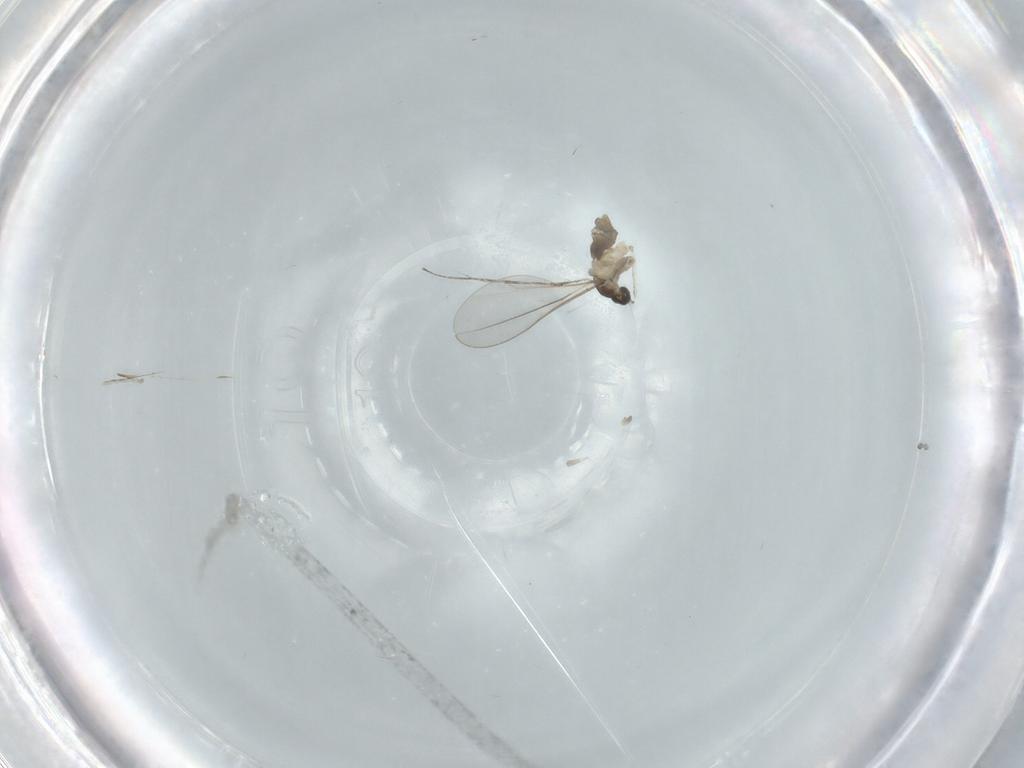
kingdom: Animalia
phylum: Arthropoda
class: Insecta
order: Diptera
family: Cecidomyiidae
